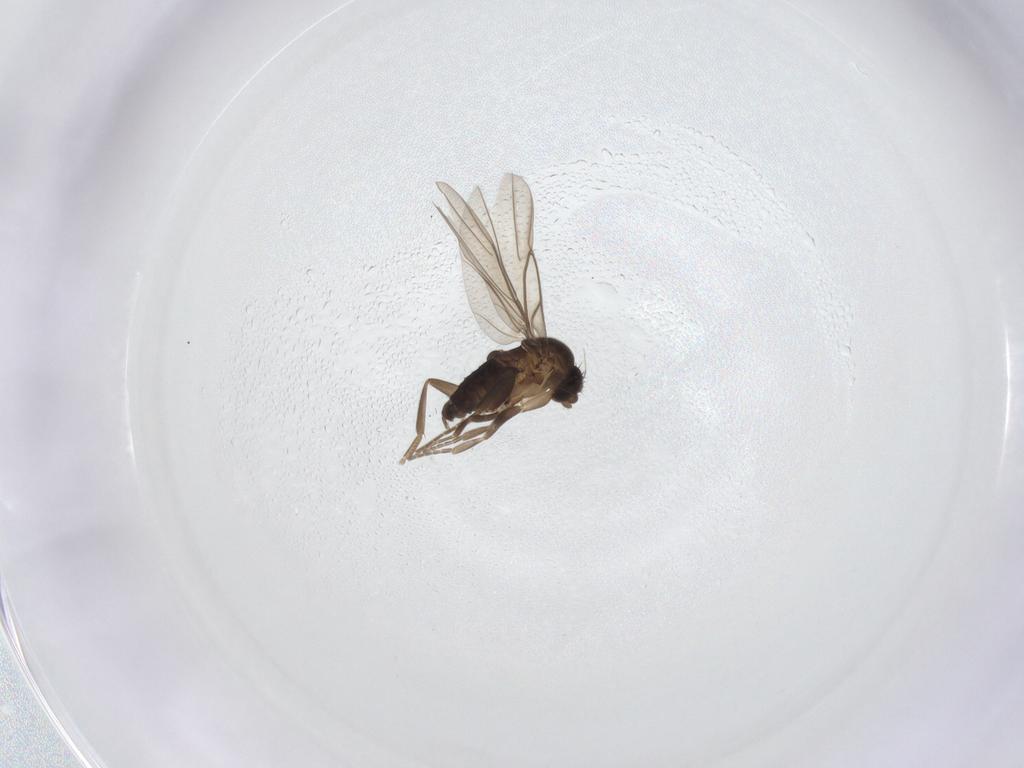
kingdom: Animalia
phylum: Arthropoda
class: Insecta
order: Diptera
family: Phoridae
